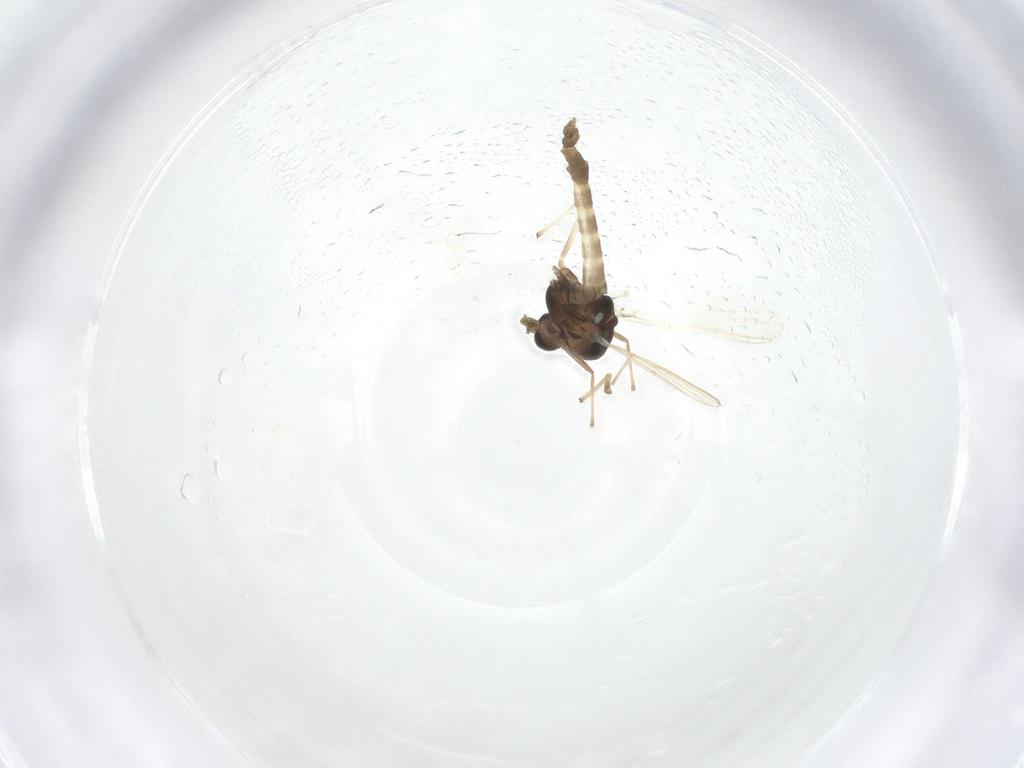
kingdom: Animalia
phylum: Arthropoda
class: Insecta
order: Diptera
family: Chironomidae
